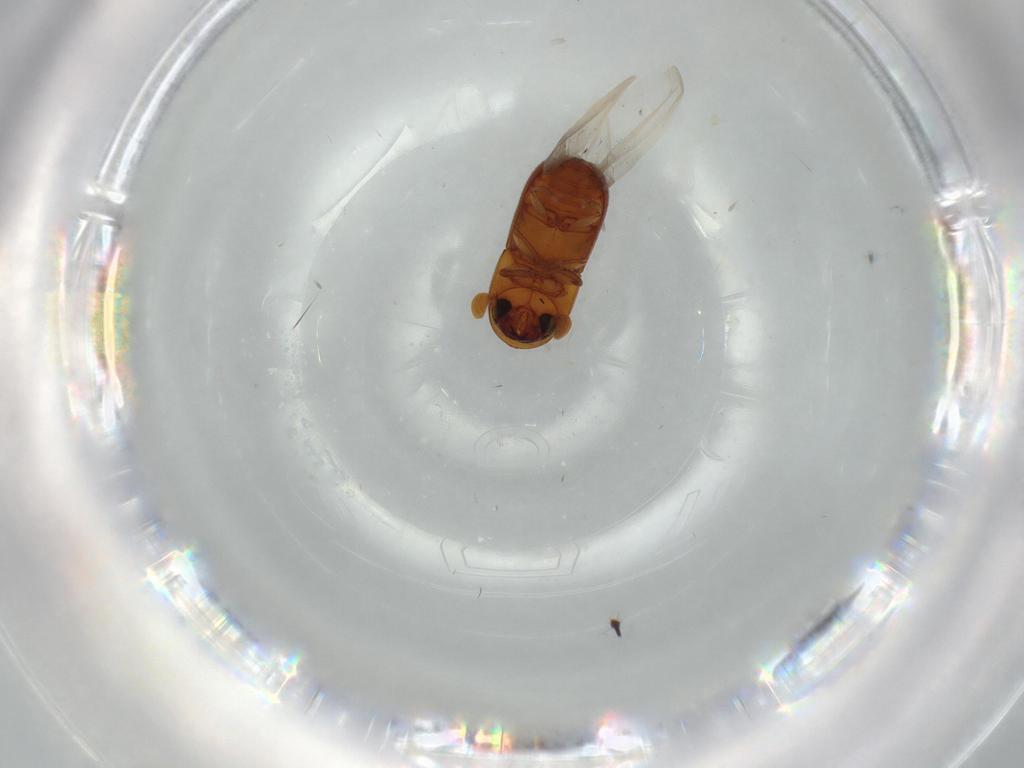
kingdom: Animalia
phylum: Arthropoda
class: Insecta
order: Coleoptera
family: Curculionidae
